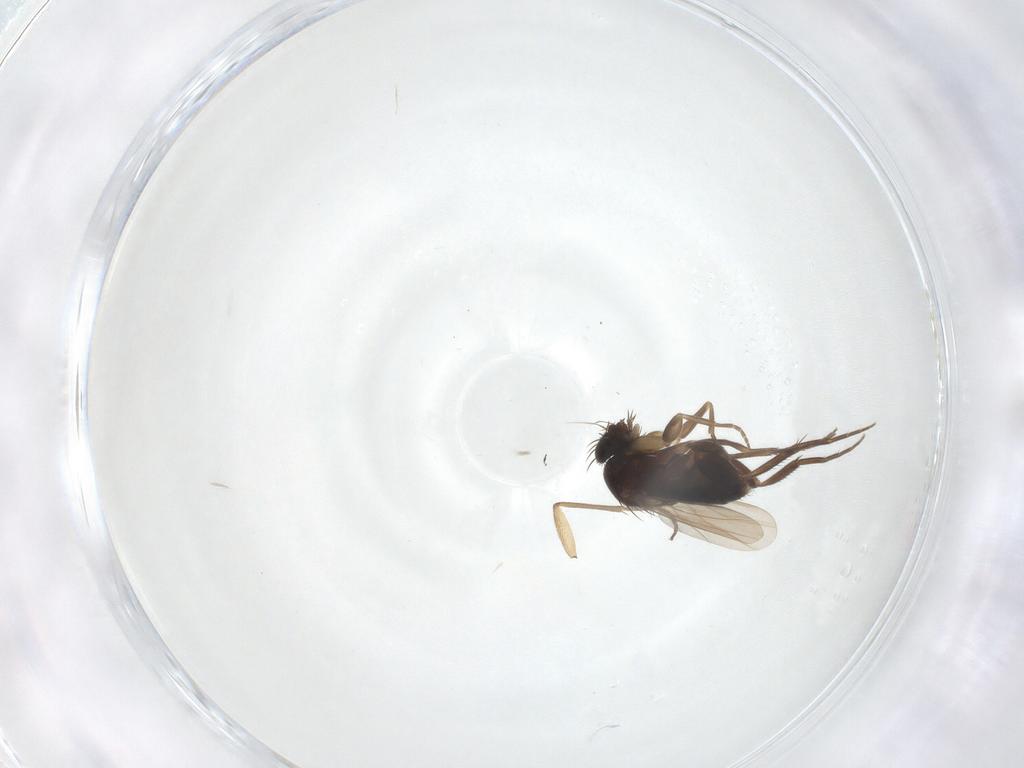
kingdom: Animalia
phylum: Arthropoda
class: Insecta
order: Diptera
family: Phoridae
